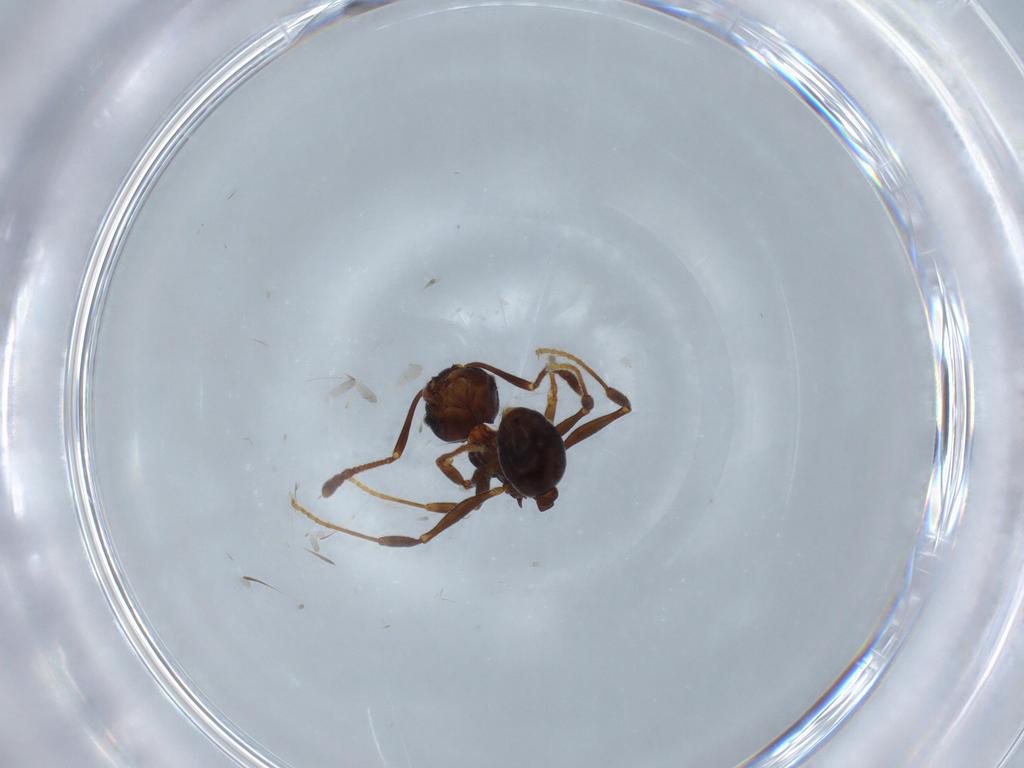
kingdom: Animalia
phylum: Arthropoda
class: Insecta
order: Hymenoptera
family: Formicidae
